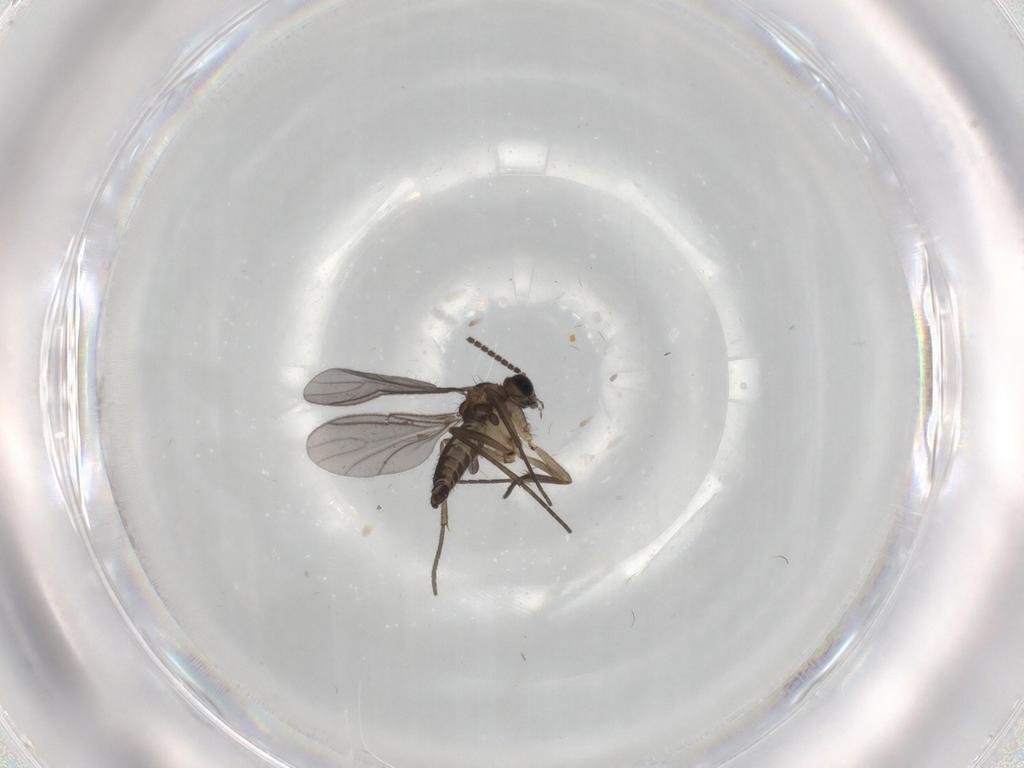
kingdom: Animalia
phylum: Arthropoda
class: Insecta
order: Diptera
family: Sciaridae
